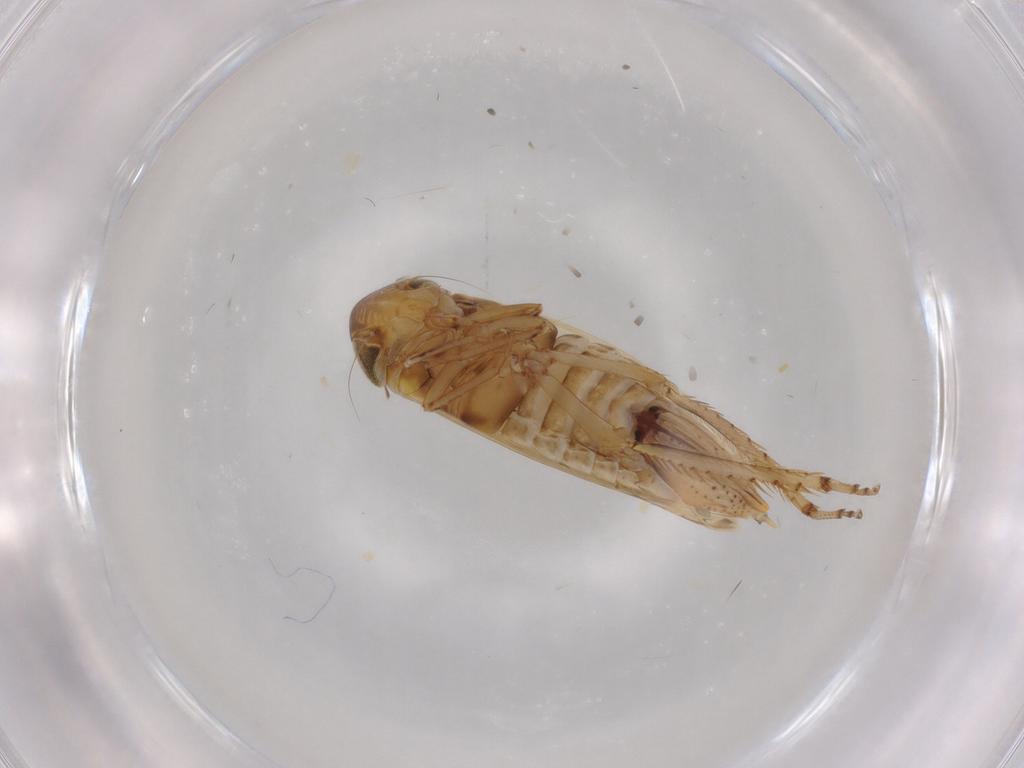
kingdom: Animalia
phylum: Arthropoda
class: Insecta
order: Hemiptera
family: Cicadellidae
